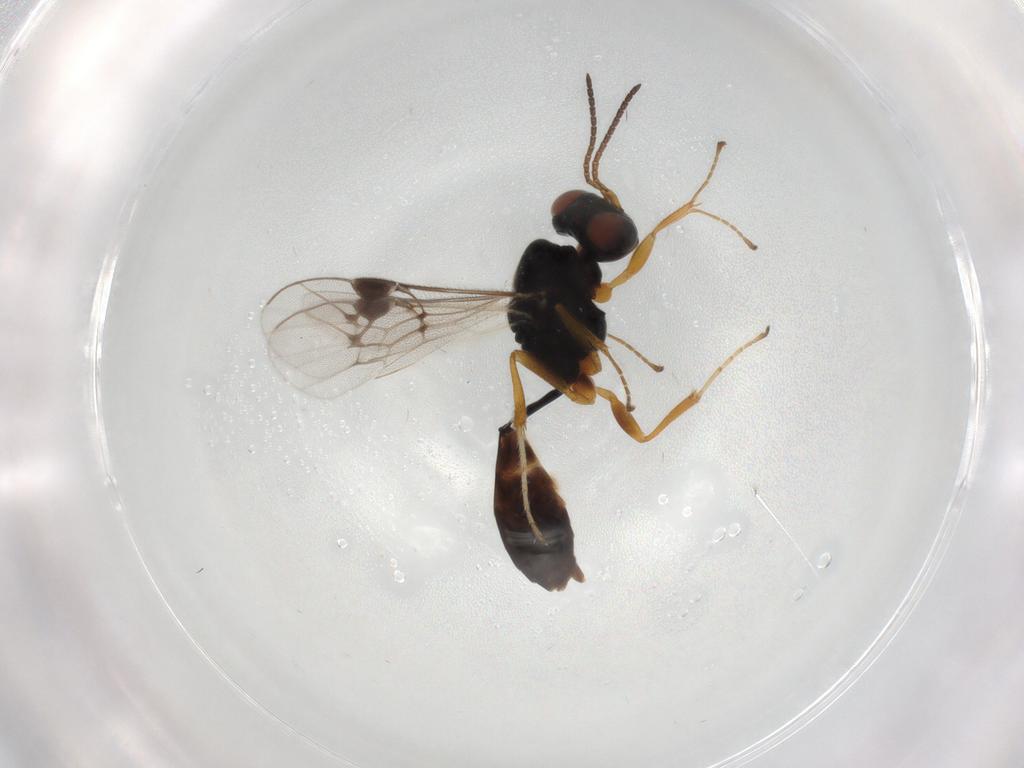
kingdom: Animalia
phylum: Arthropoda
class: Insecta
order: Hymenoptera
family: Ichneumonidae
